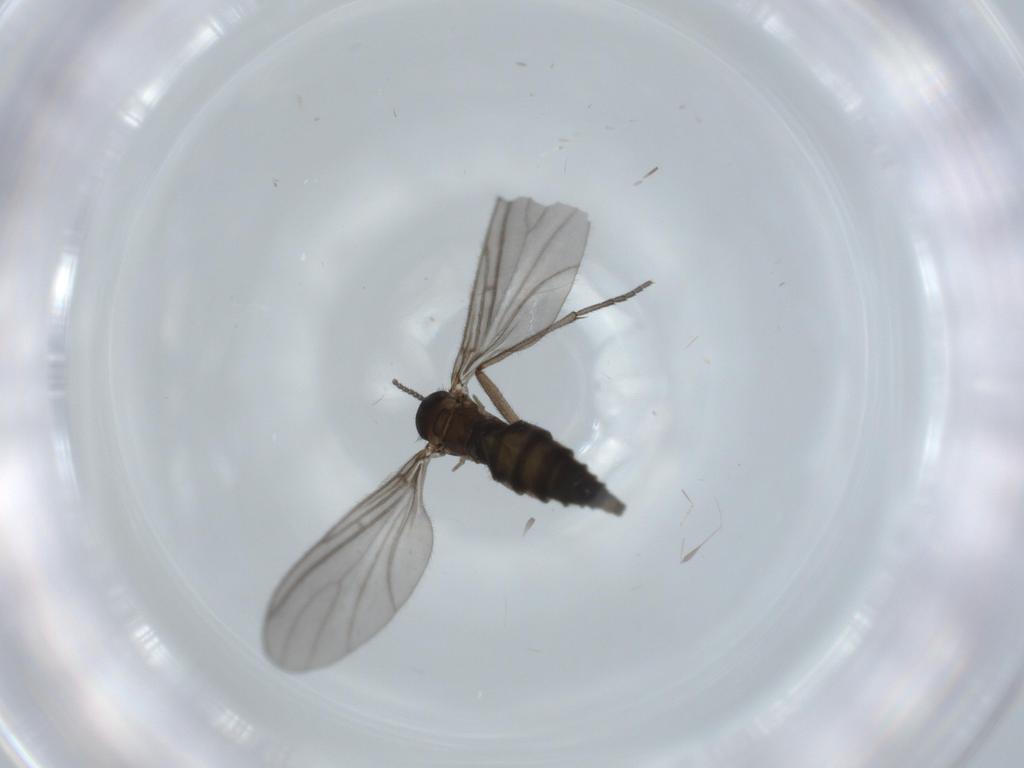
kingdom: Animalia
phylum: Arthropoda
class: Insecta
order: Diptera
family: Sciaridae
